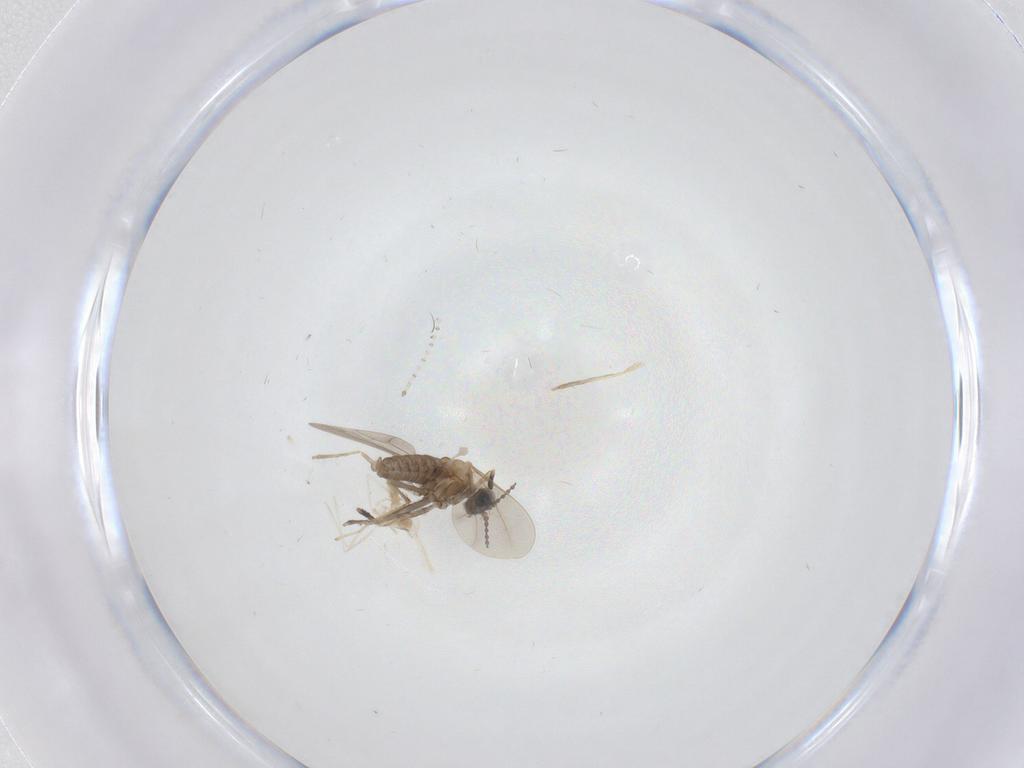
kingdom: Animalia
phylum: Arthropoda
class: Insecta
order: Diptera
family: Cecidomyiidae
